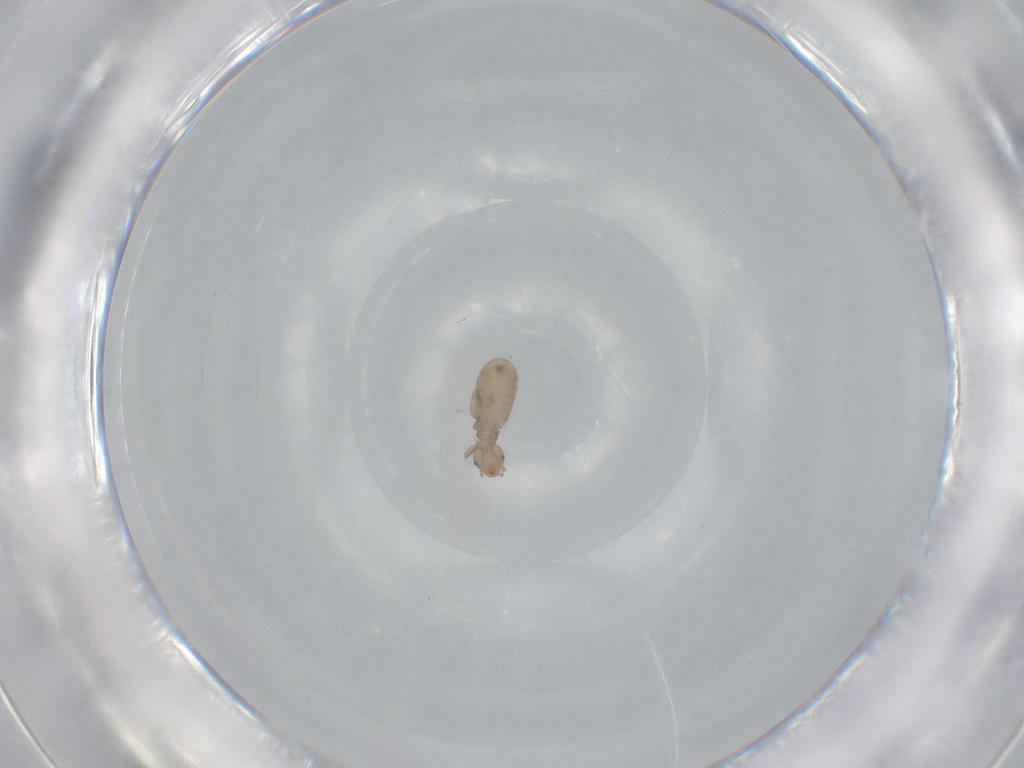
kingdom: Animalia
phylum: Arthropoda
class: Insecta
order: Psocodea
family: Liposcelididae
